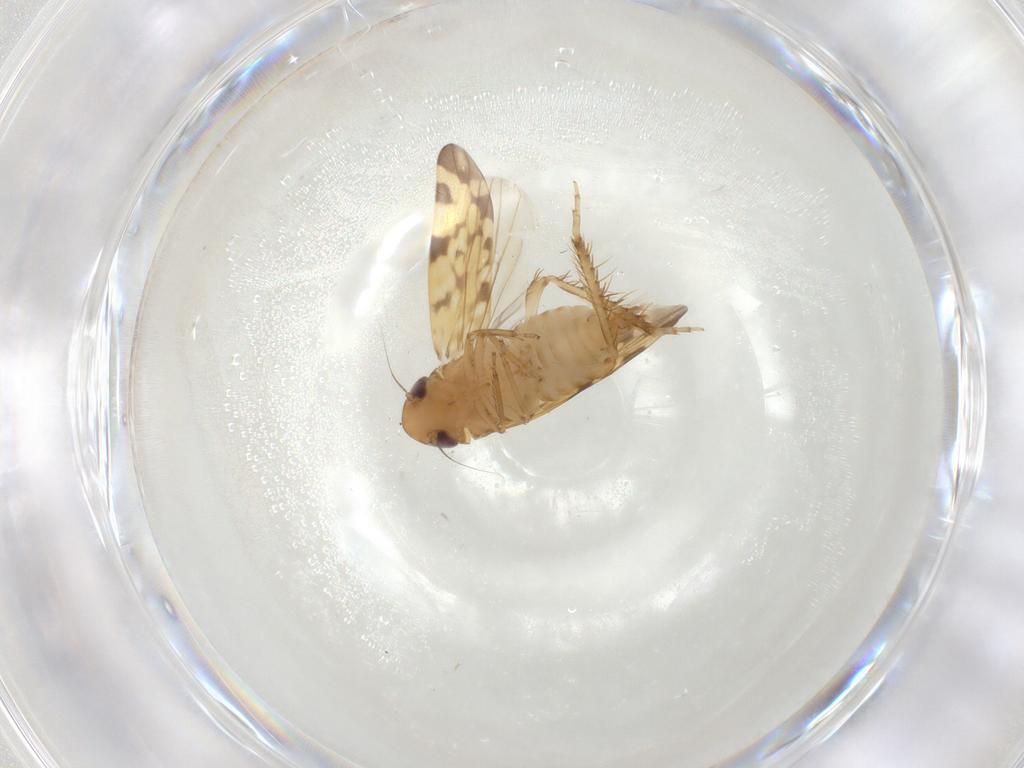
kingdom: Animalia
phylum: Arthropoda
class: Insecta
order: Hemiptera
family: Cicadellidae
